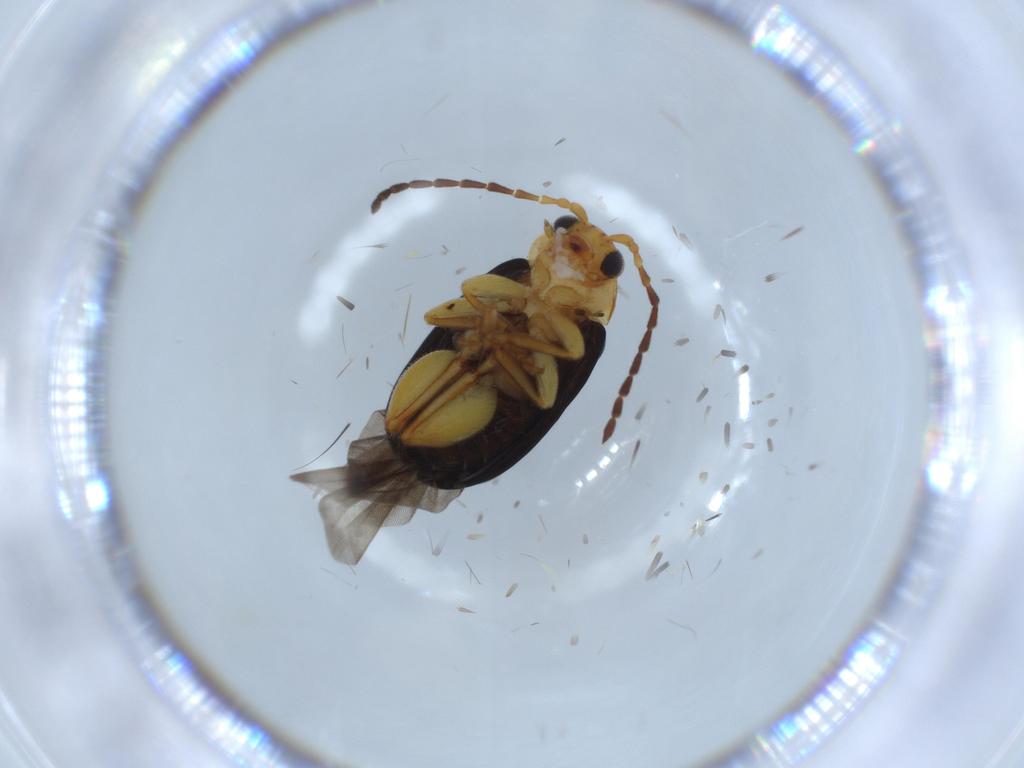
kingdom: Animalia
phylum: Arthropoda
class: Insecta
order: Coleoptera
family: Chrysomelidae
